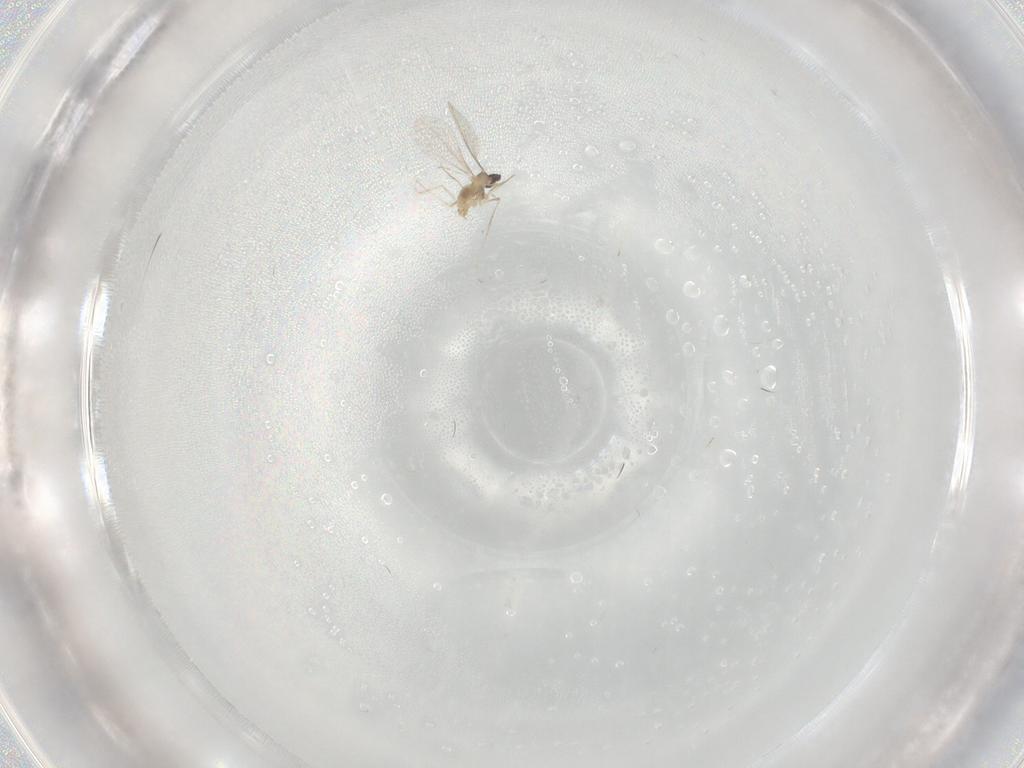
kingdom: Animalia
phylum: Arthropoda
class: Insecta
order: Diptera
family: Cecidomyiidae
